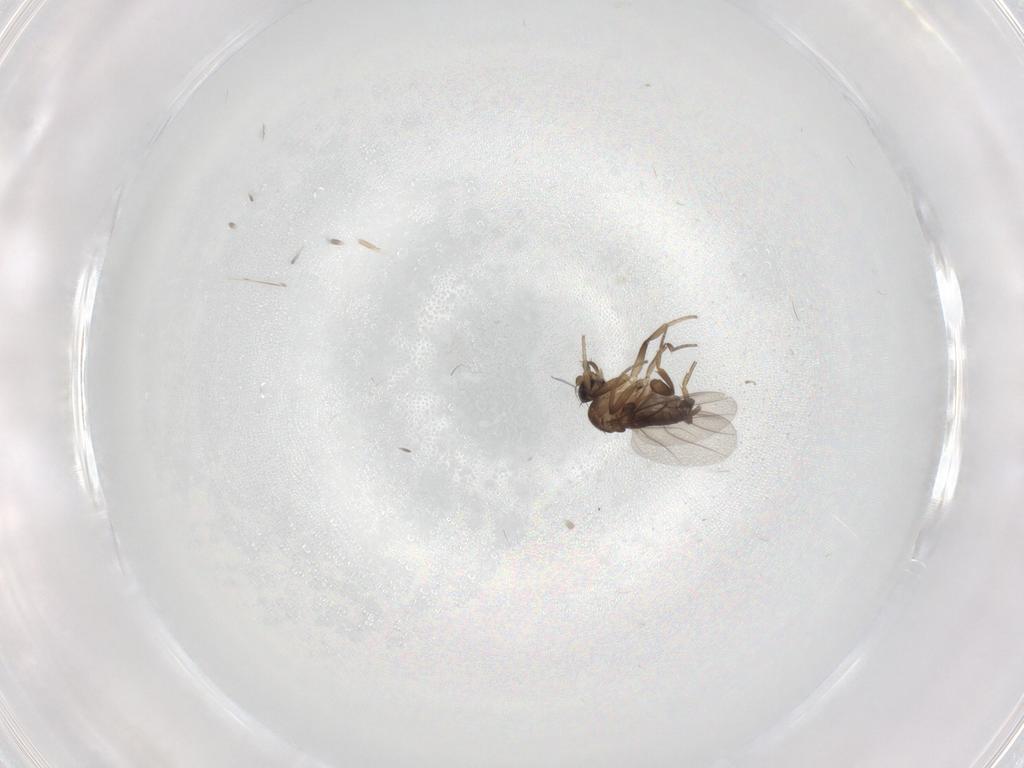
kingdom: Animalia
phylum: Arthropoda
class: Insecta
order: Diptera
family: Phoridae
